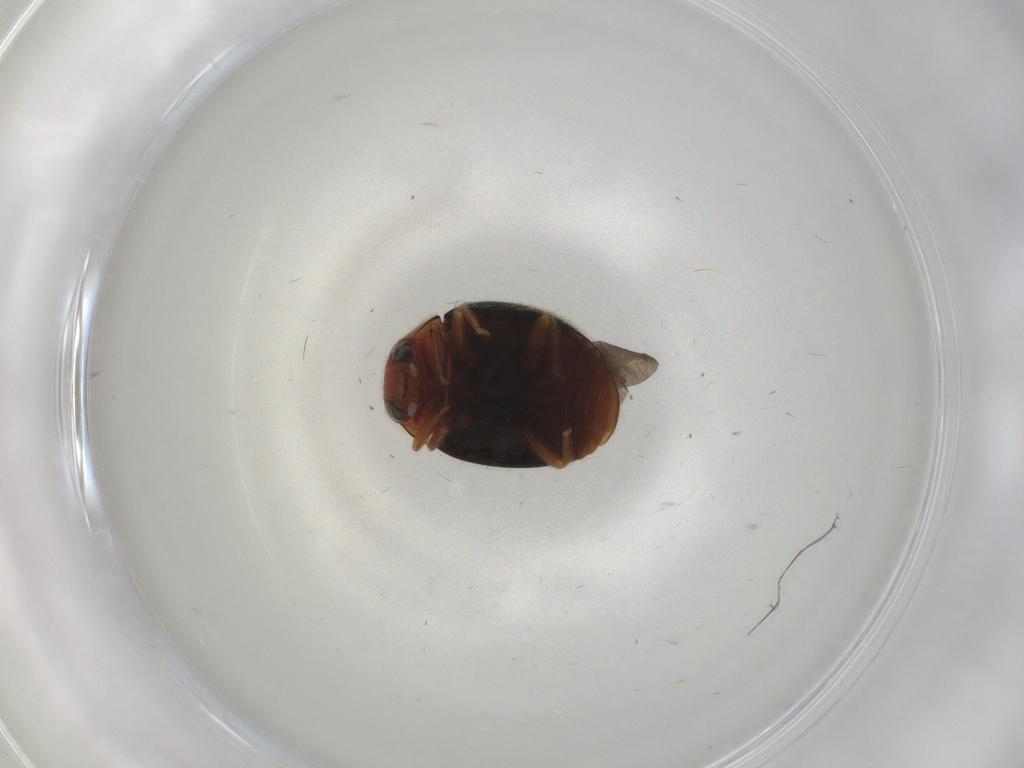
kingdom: Animalia
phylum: Arthropoda
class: Insecta
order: Coleoptera
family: Coccinellidae
